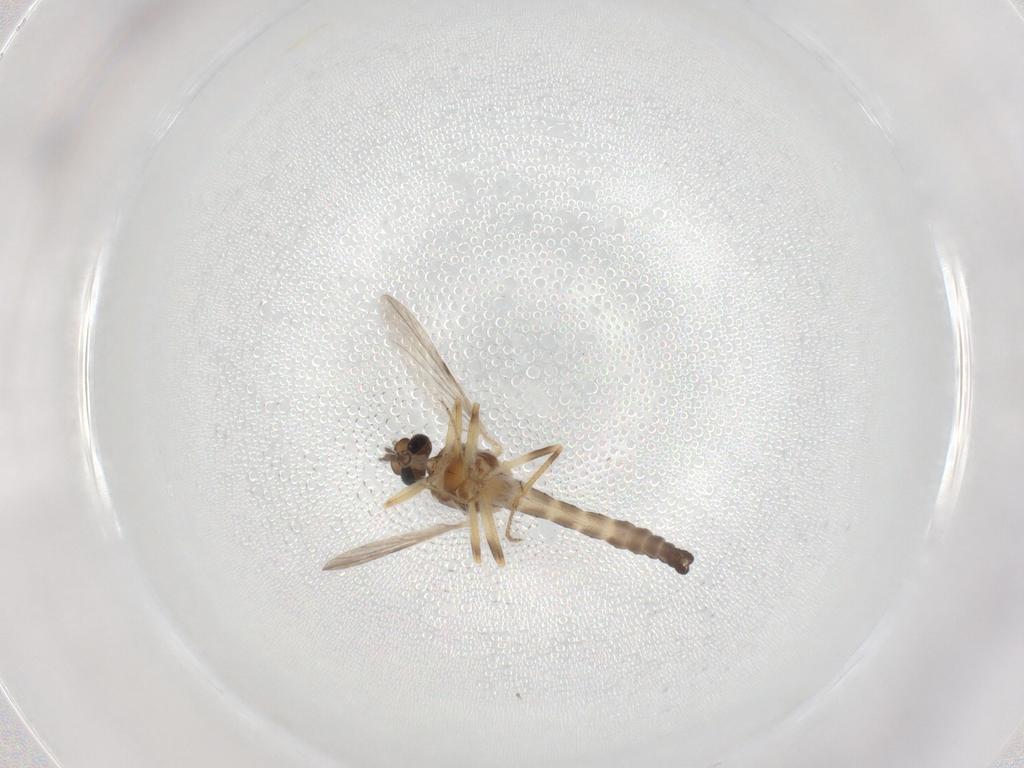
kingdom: Animalia
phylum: Arthropoda
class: Insecta
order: Diptera
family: Ceratopogonidae
